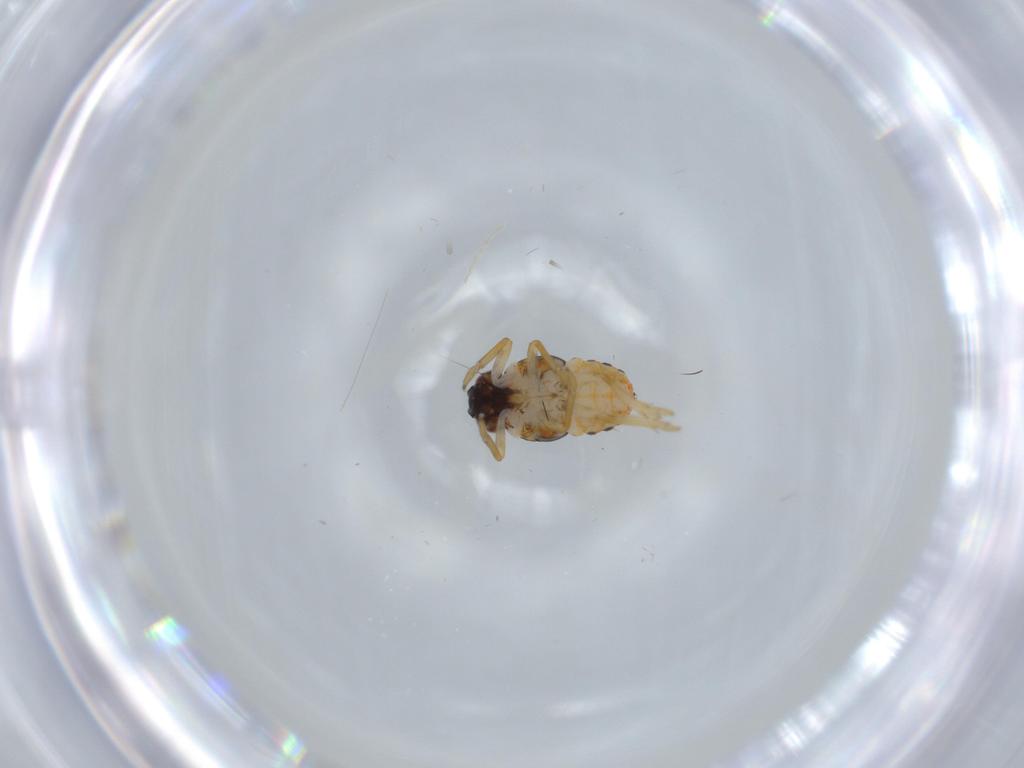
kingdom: Animalia
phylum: Arthropoda
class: Insecta
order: Hemiptera
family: Issidae
